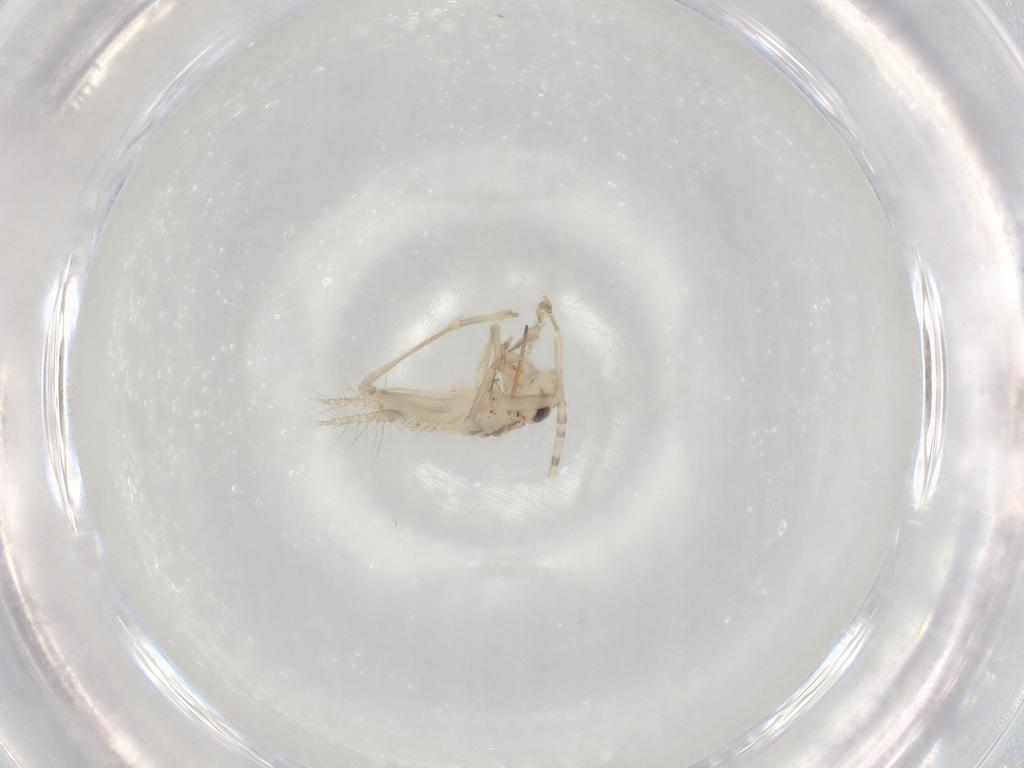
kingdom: Animalia
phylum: Arthropoda
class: Insecta
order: Orthoptera
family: Trigonidiidae
